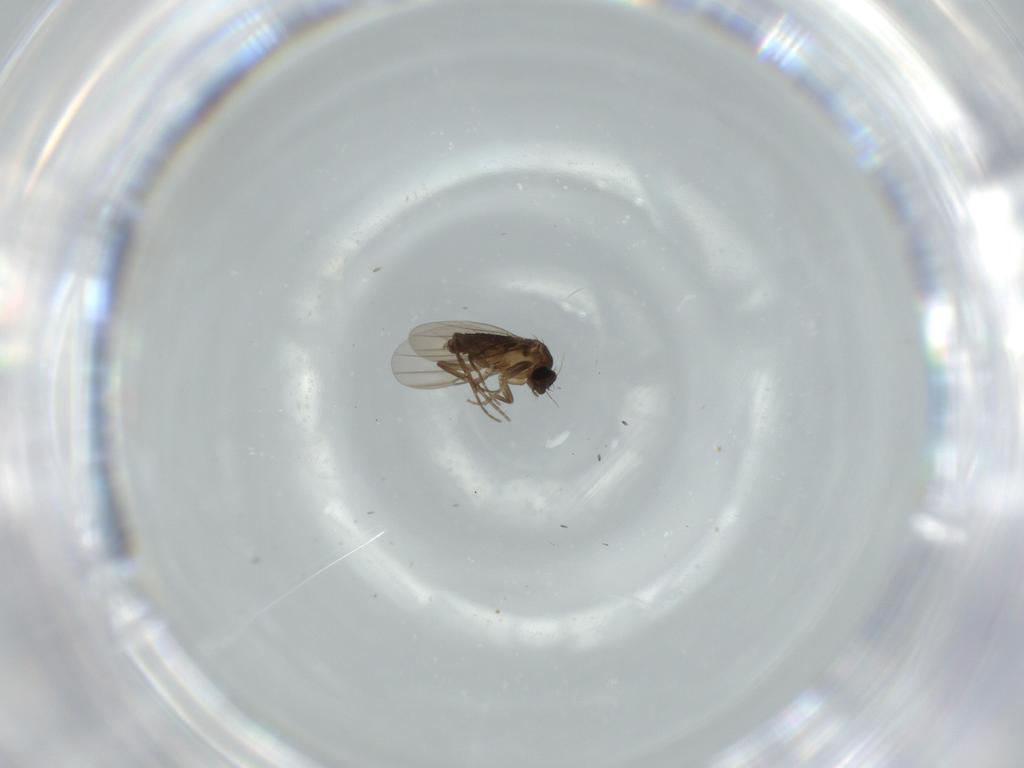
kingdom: Animalia
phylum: Arthropoda
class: Insecta
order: Diptera
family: Phoridae
